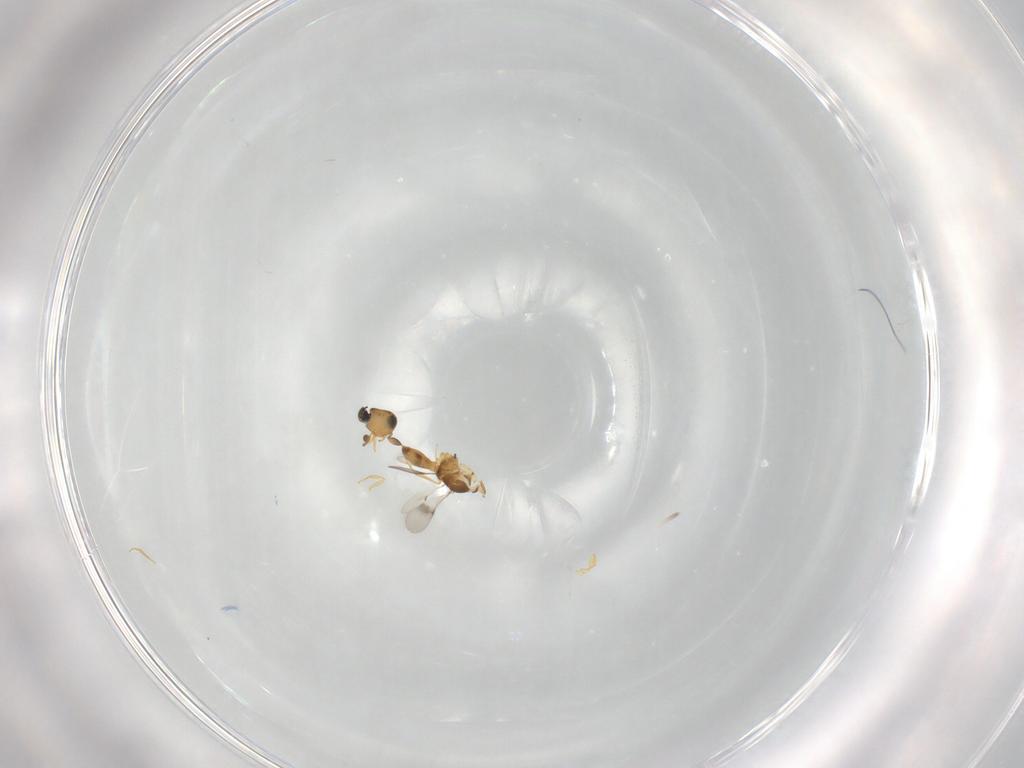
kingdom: Animalia
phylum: Arthropoda
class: Insecta
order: Hymenoptera
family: Scelionidae
